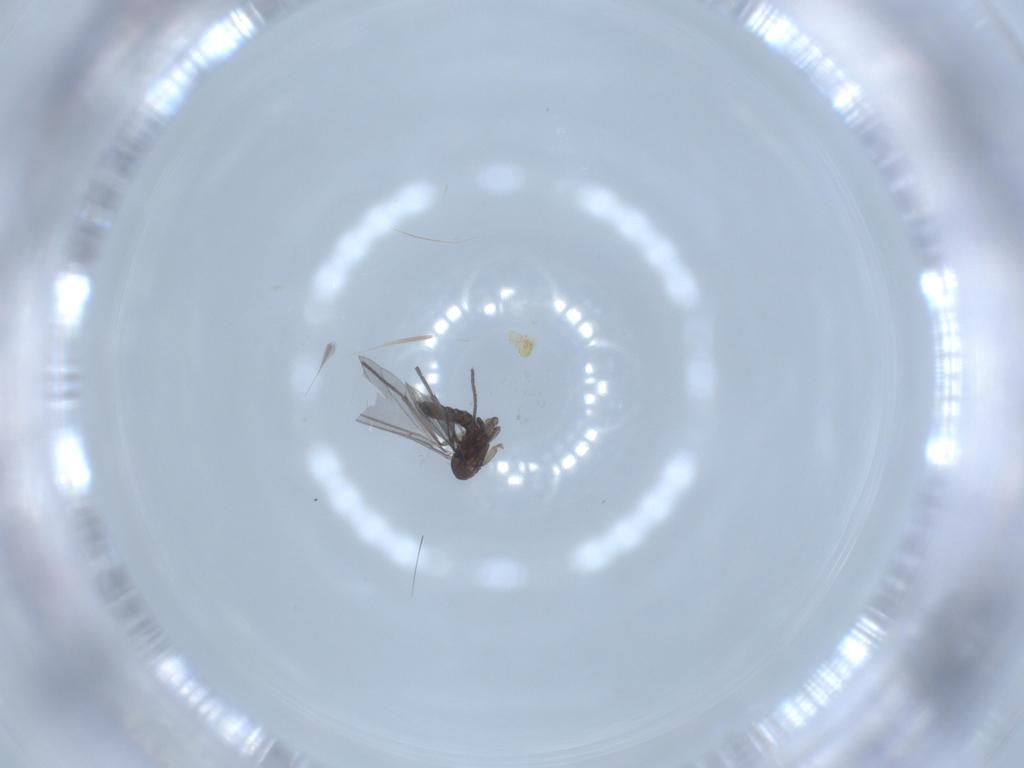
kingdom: Animalia
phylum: Arthropoda
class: Insecta
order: Diptera
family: Sciaridae
